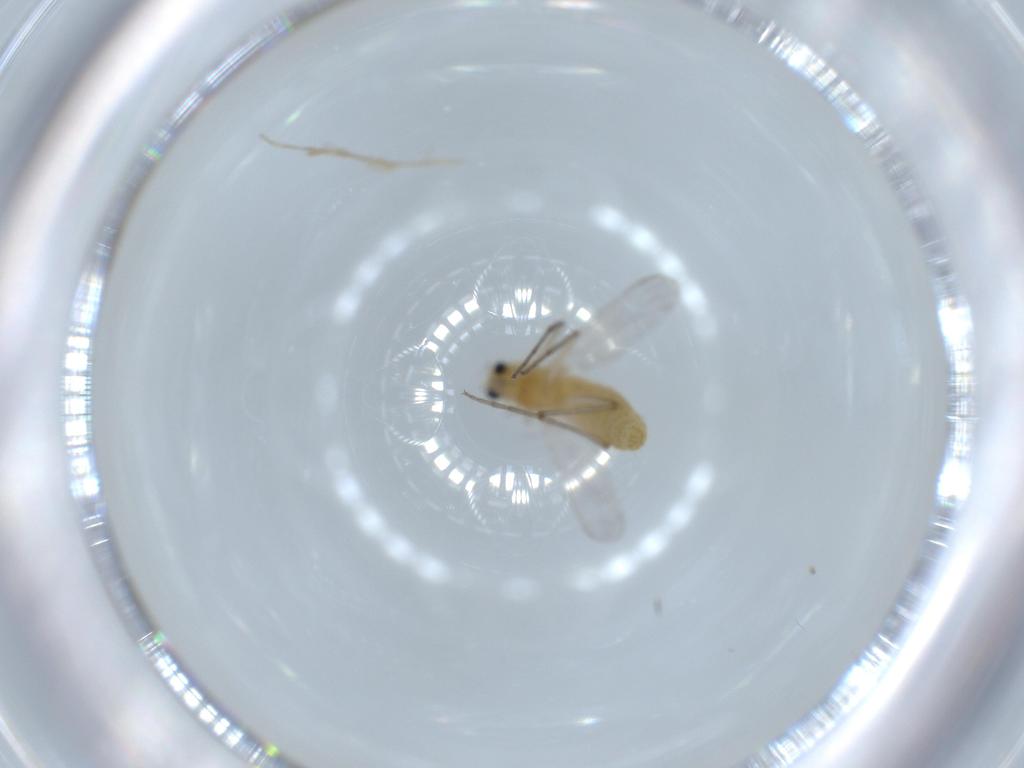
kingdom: Animalia
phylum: Arthropoda
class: Insecta
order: Diptera
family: Chironomidae
